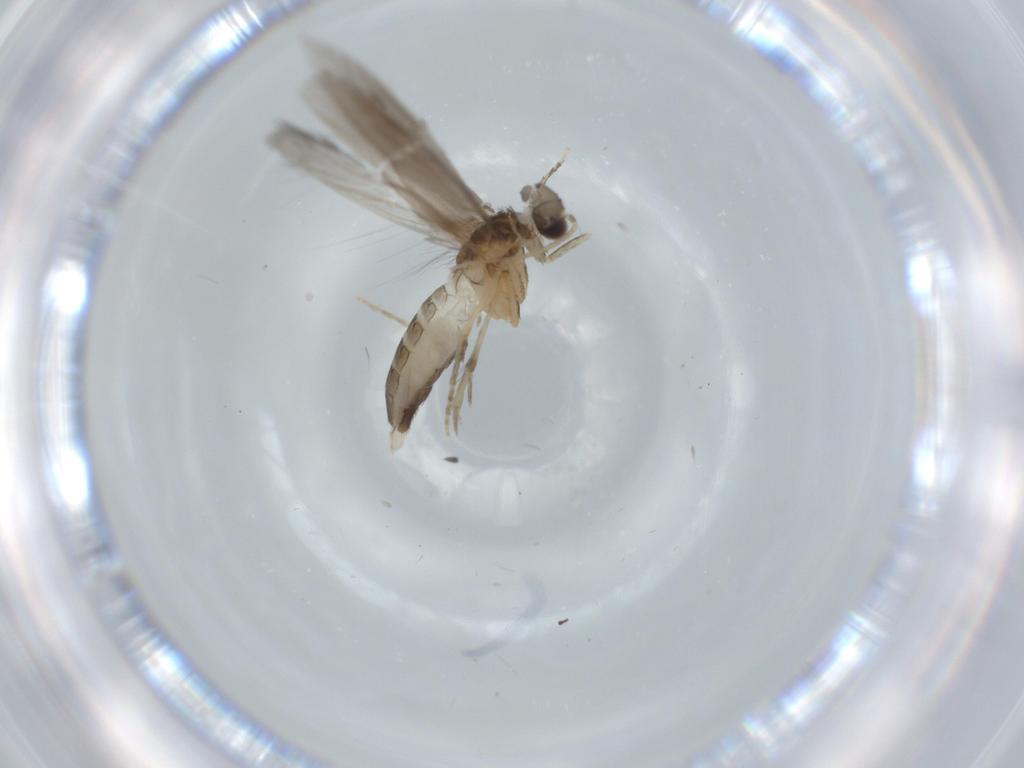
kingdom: Animalia
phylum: Arthropoda
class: Insecta
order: Trichoptera
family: Hydroptilidae
